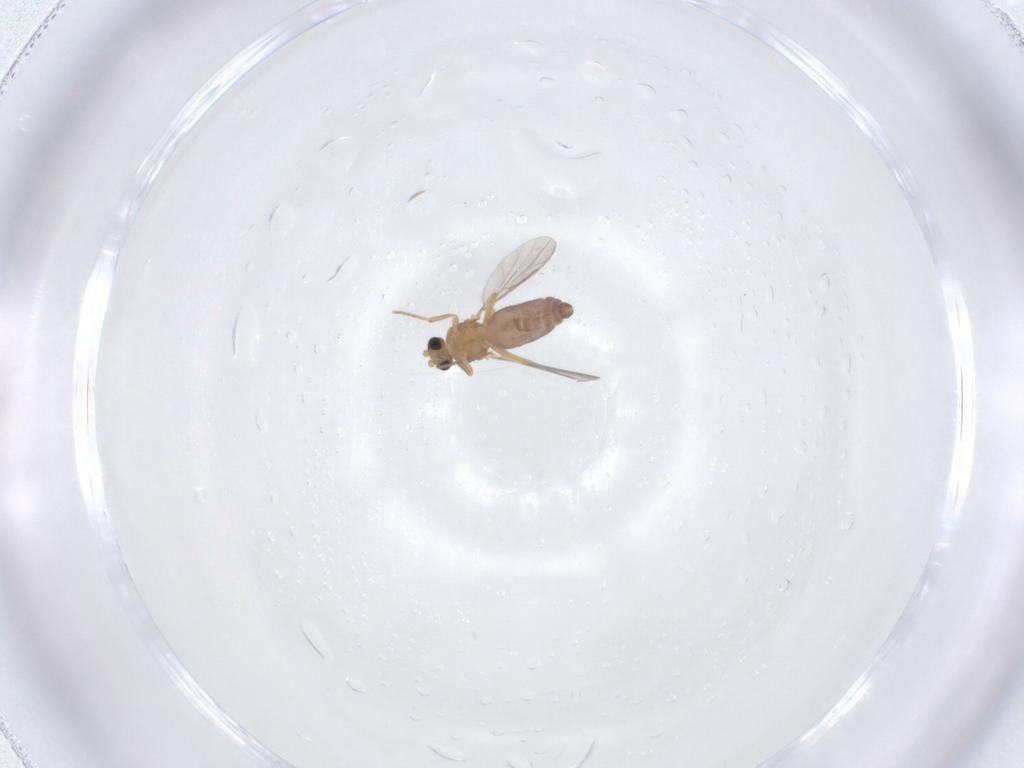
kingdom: Animalia
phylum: Arthropoda
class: Insecta
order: Diptera
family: Ceratopogonidae
